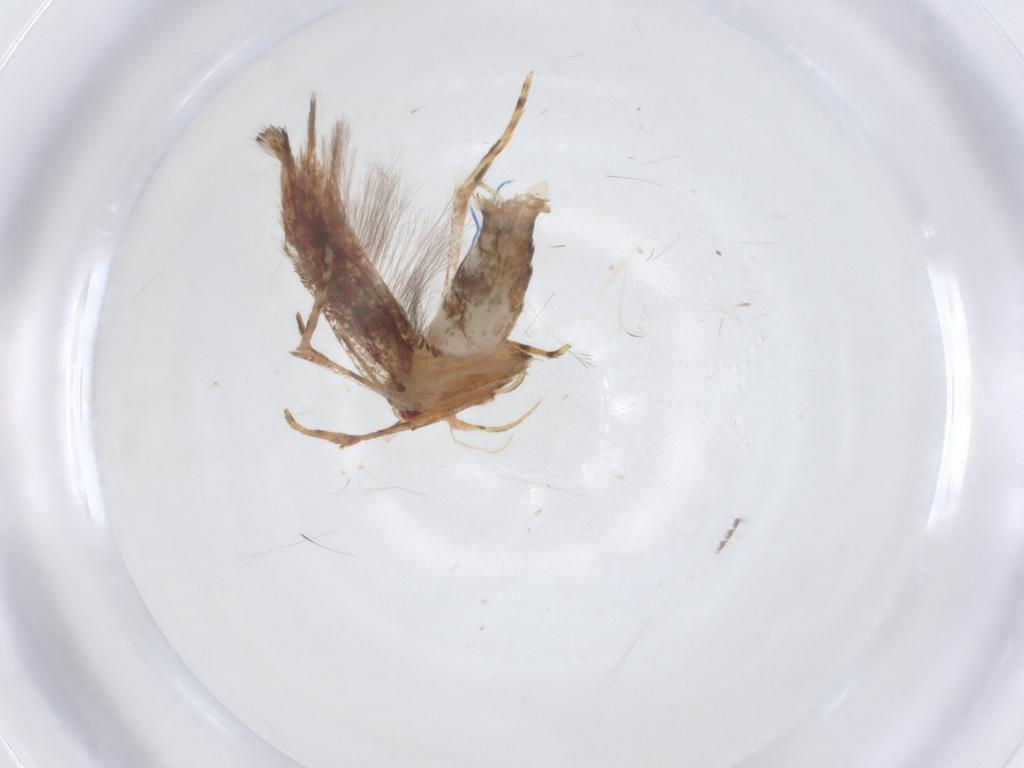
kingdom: Animalia
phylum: Arthropoda
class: Insecta
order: Lepidoptera
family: Cosmopterigidae
